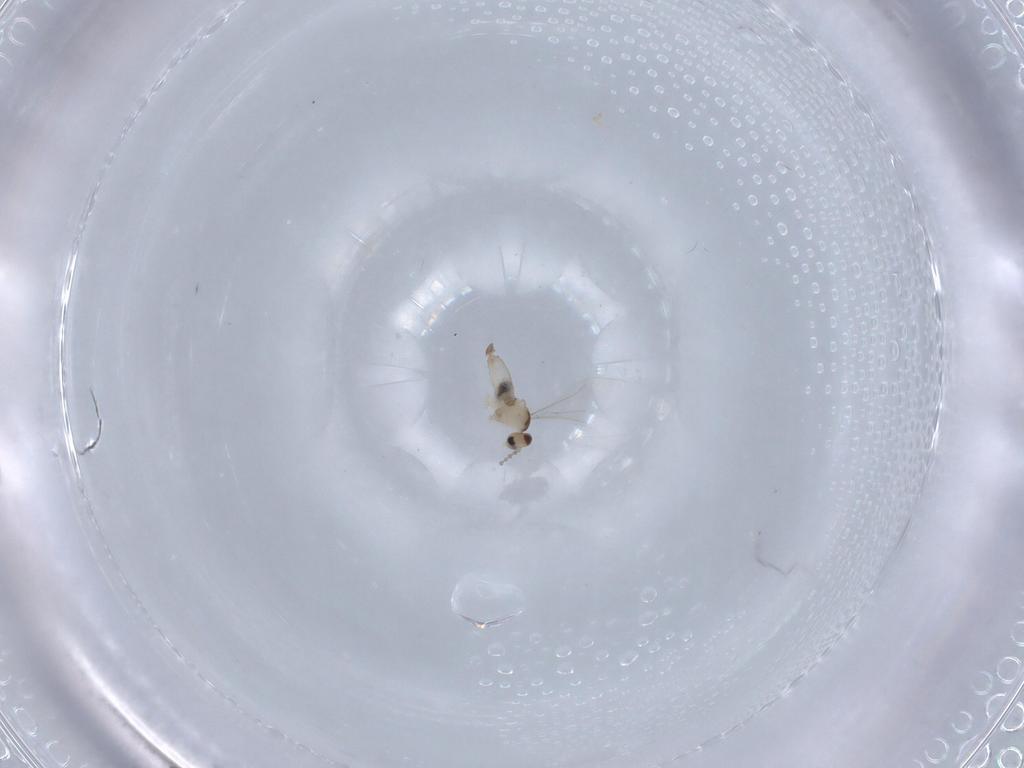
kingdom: Animalia
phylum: Arthropoda
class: Insecta
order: Diptera
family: Cecidomyiidae
